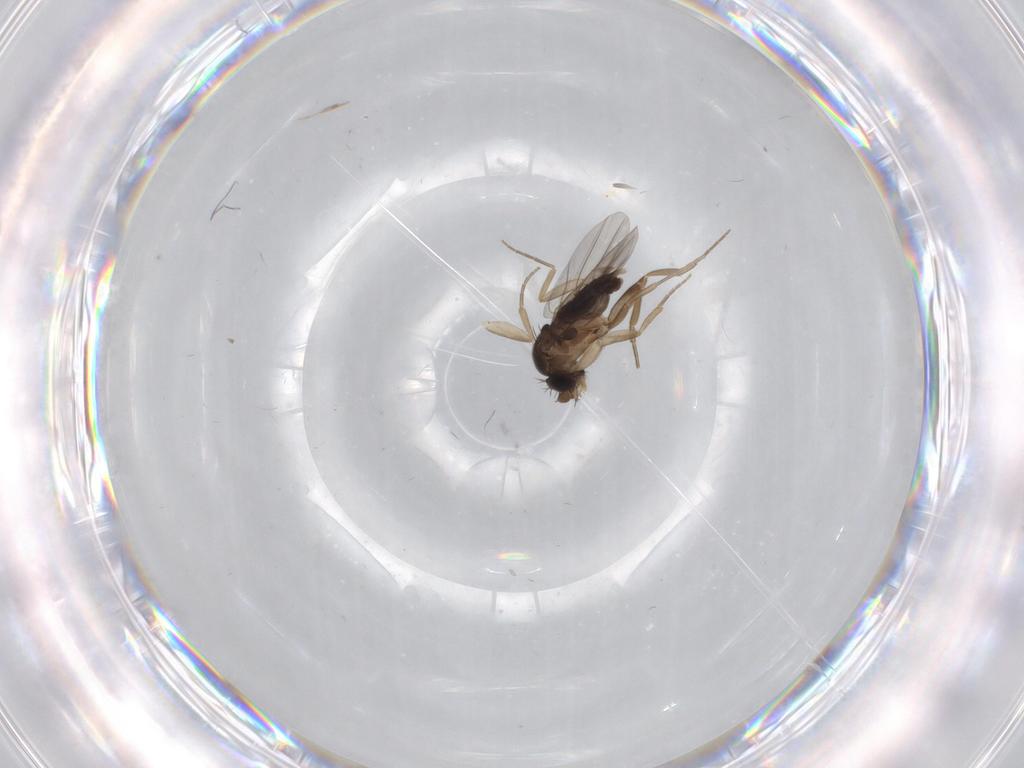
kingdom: Animalia
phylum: Arthropoda
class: Insecta
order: Diptera
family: Phoridae
